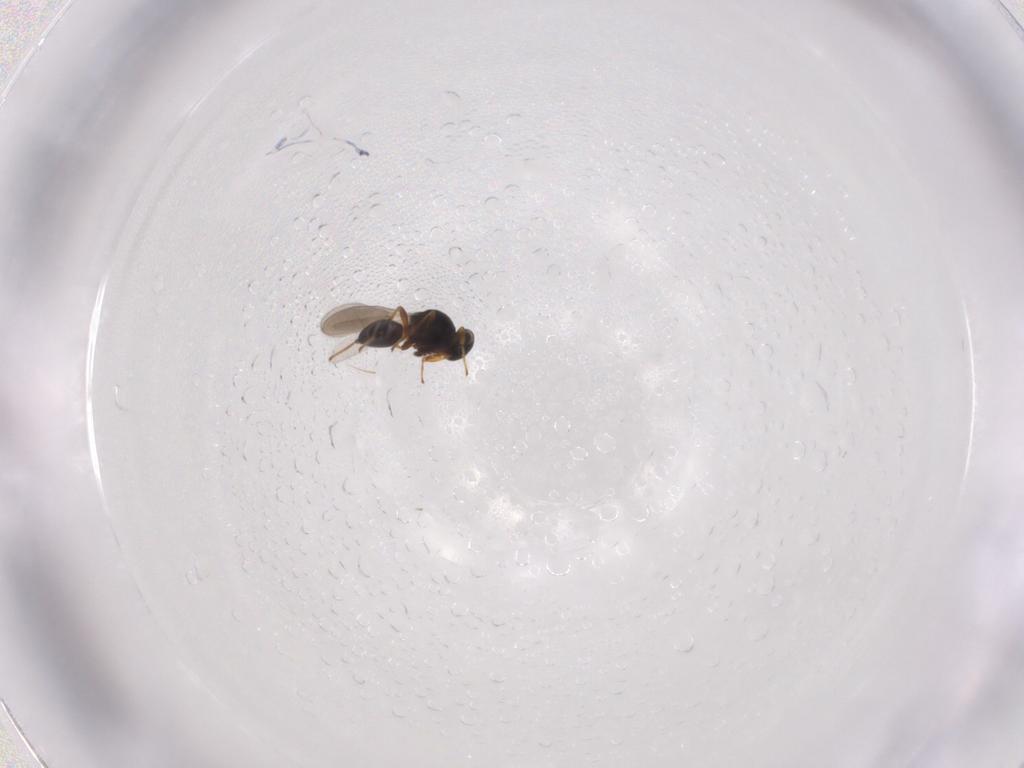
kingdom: Animalia
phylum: Arthropoda
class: Insecta
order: Hymenoptera
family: Platygastridae
